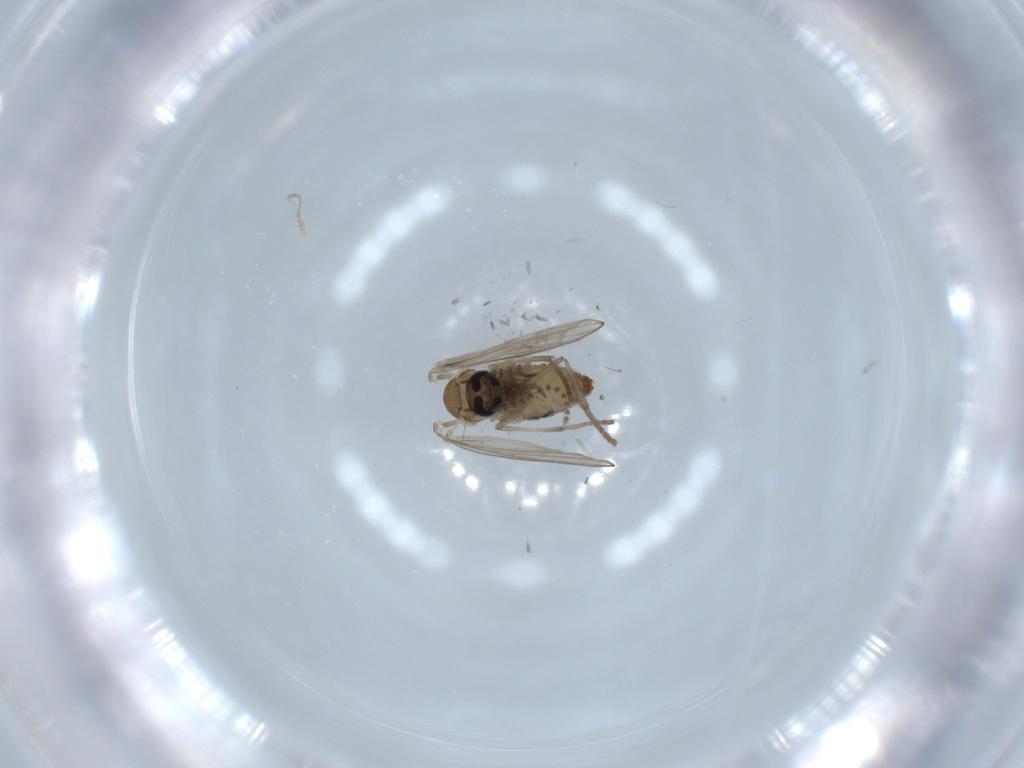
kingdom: Animalia
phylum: Arthropoda
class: Insecta
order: Diptera
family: Psychodidae
